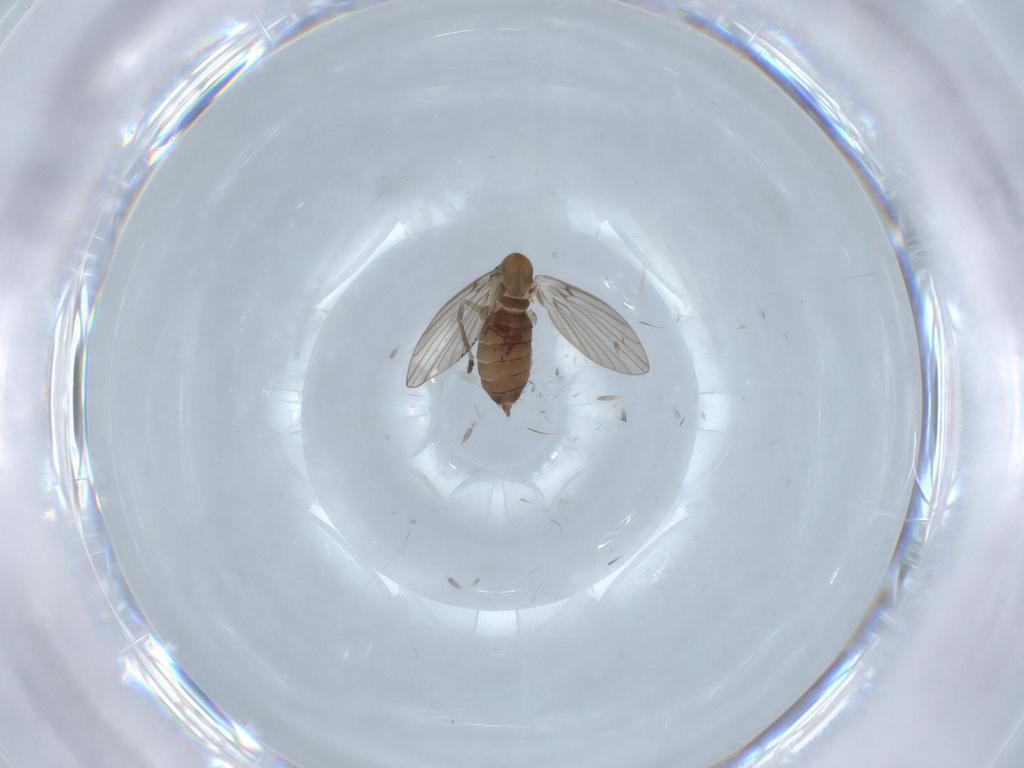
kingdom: Animalia
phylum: Arthropoda
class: Insecta
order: Diptera
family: Psychodidae
